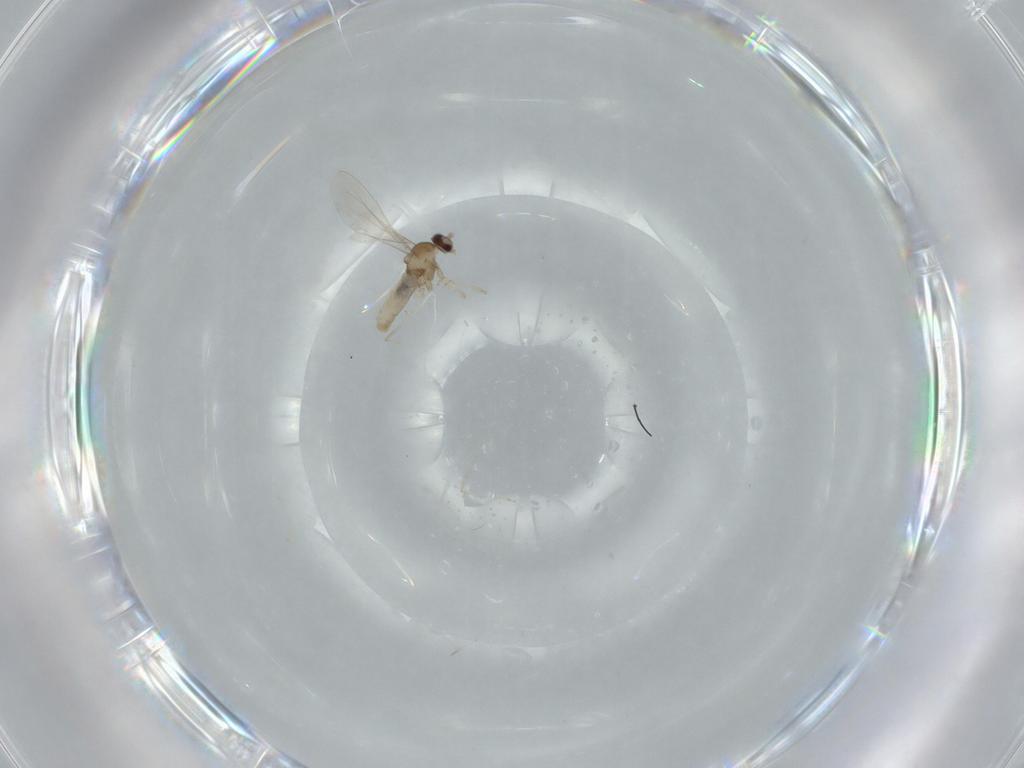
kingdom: Animalia
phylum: Arthropoda
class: Insecta
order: Diptera
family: Cecidomyiidae
